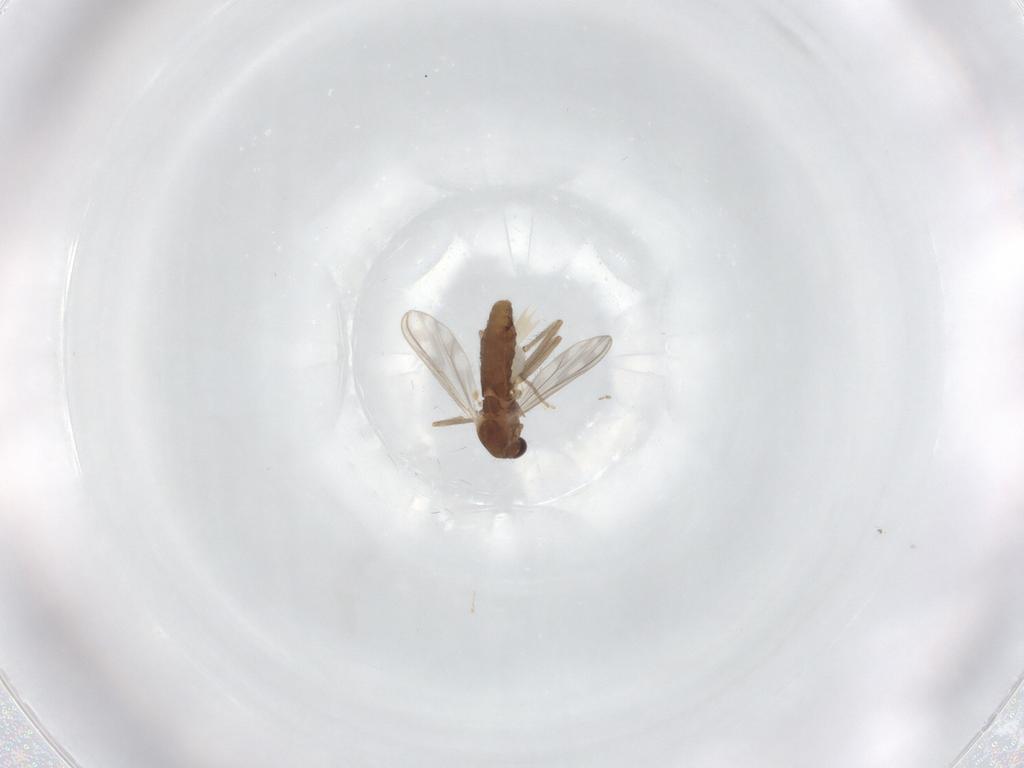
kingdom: Animalia
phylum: Arthropoda
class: Insecta
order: Diptera
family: Chironomidae
